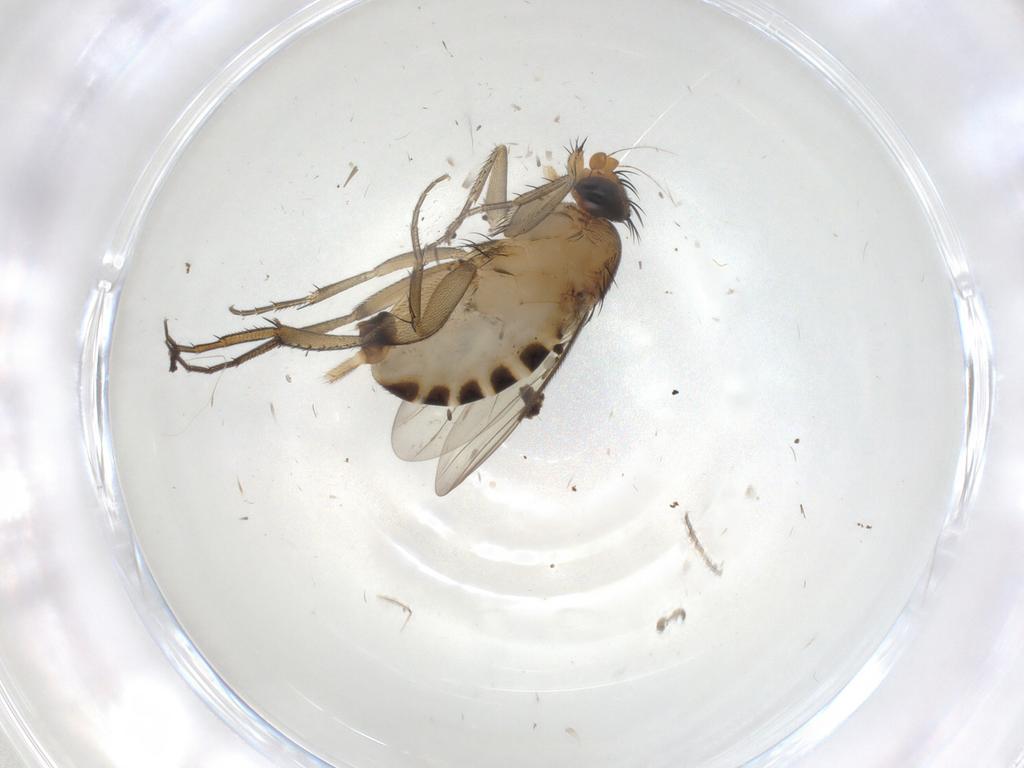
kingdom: Animalia
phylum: Arthropoda
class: Insecta
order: Diptera
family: Phoridae
